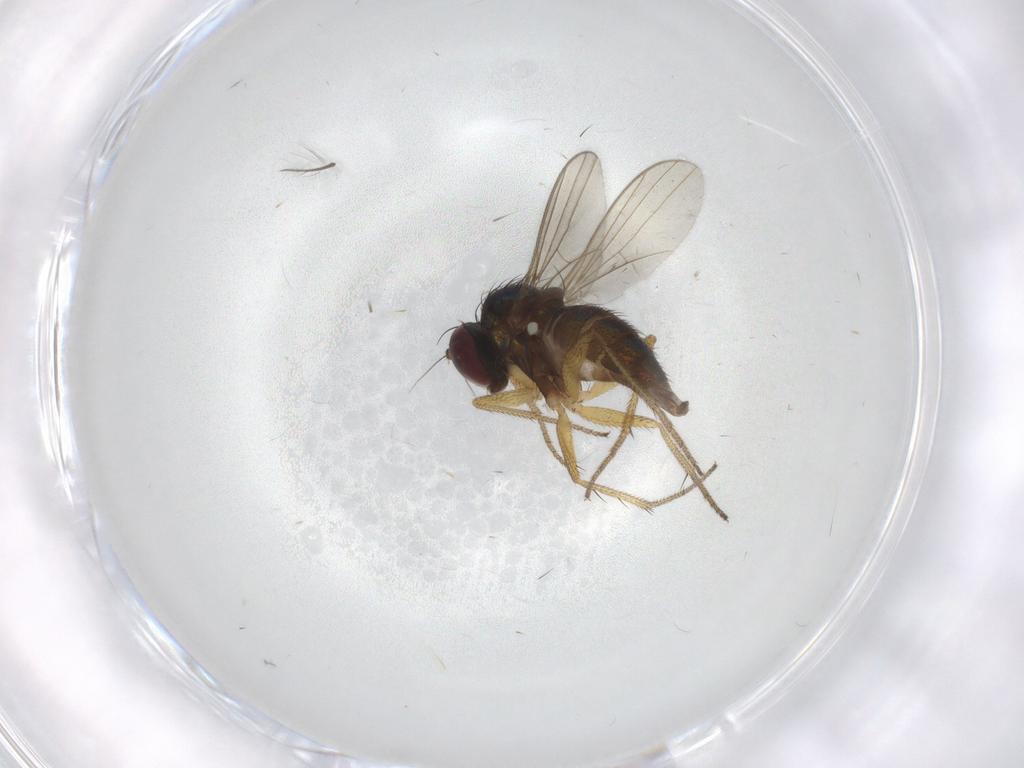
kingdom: Animalia
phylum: Arthropoda
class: Insecta
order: Diptera
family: Chironomidae
